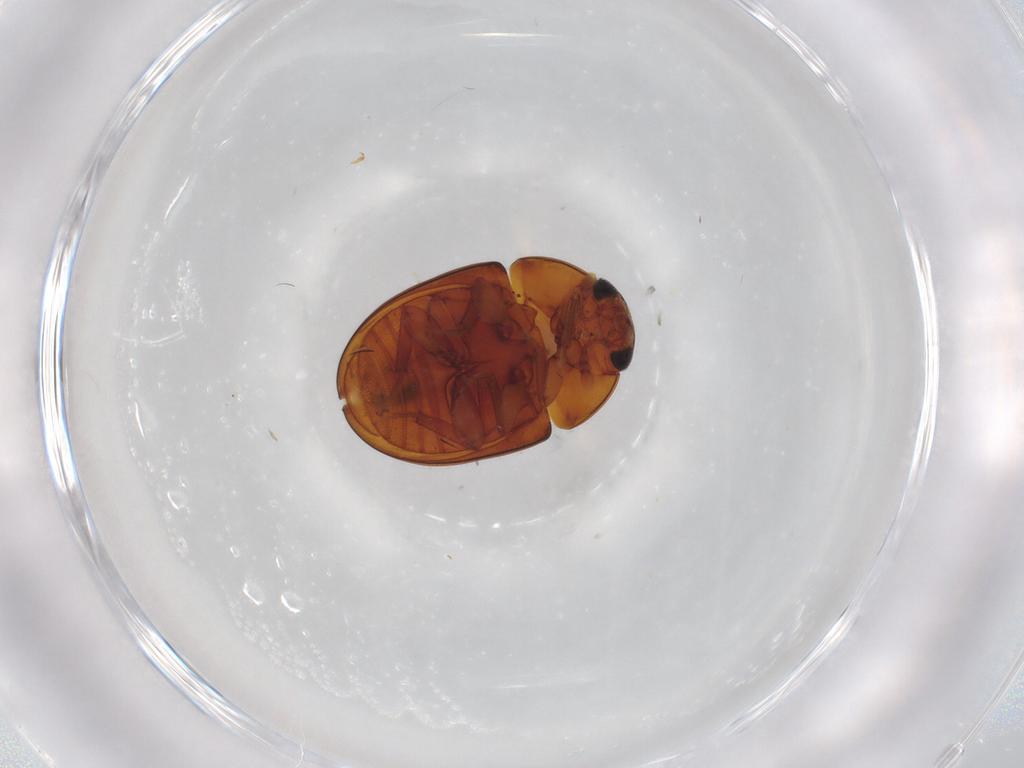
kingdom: Animalia
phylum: Arthropoda
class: Insecta
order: Coleoptera
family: Phalacridae
